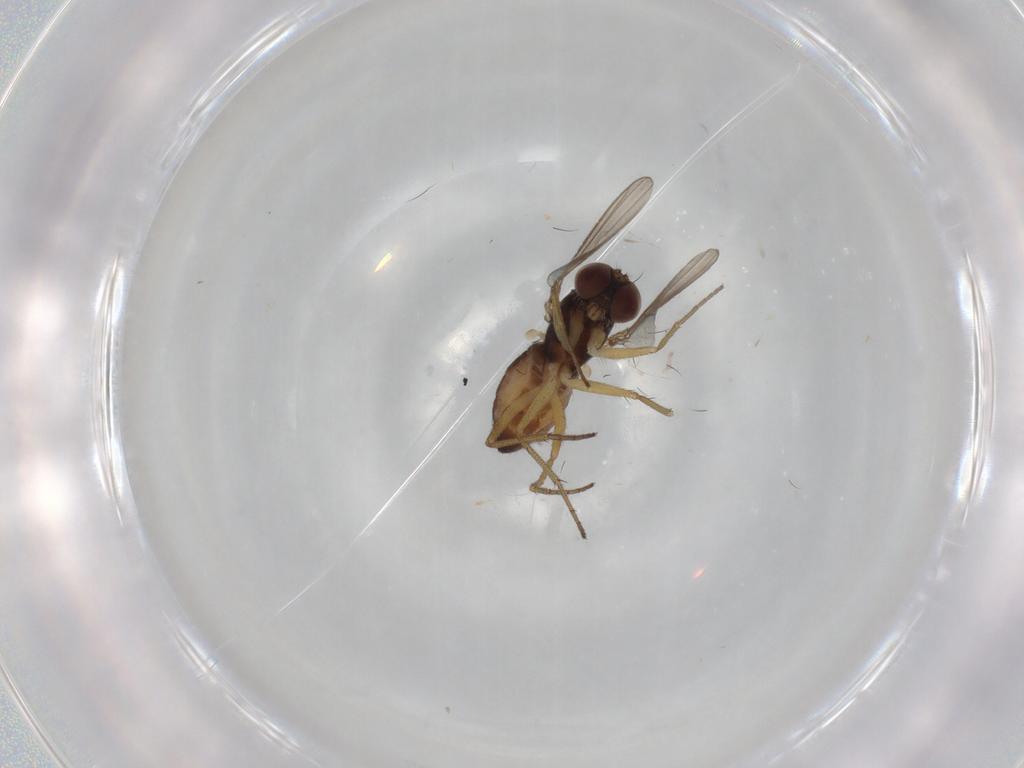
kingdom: Animalia
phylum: Arthropoda
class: Insecta
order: Diptera
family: Dolichopodidae
